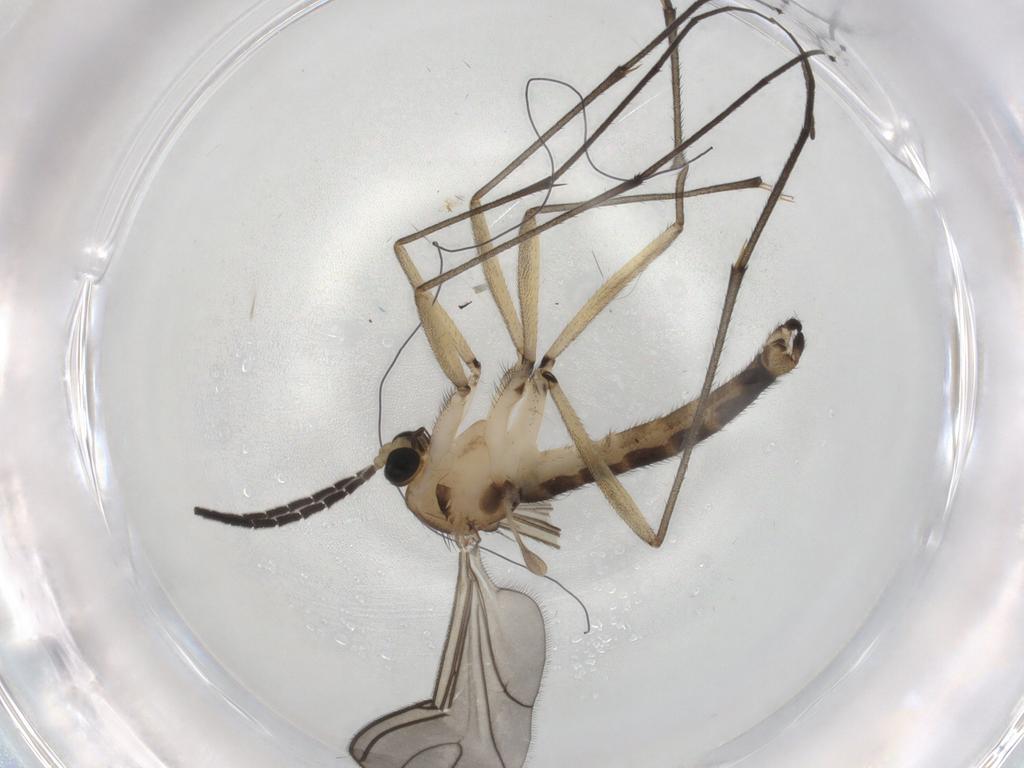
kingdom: Animalia
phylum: Arthropoda
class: Insecta
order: Diptera
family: Sciaridae
